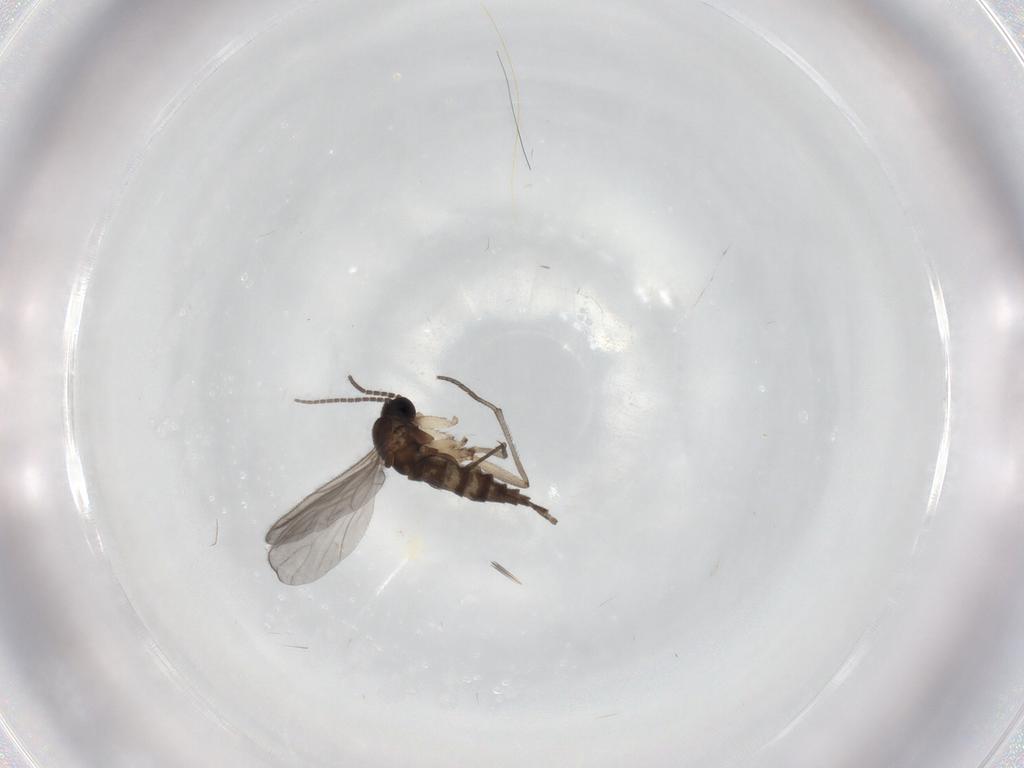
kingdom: Animalia
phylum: Arthropoda
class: Insecta
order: Diptera
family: Sciaridae
